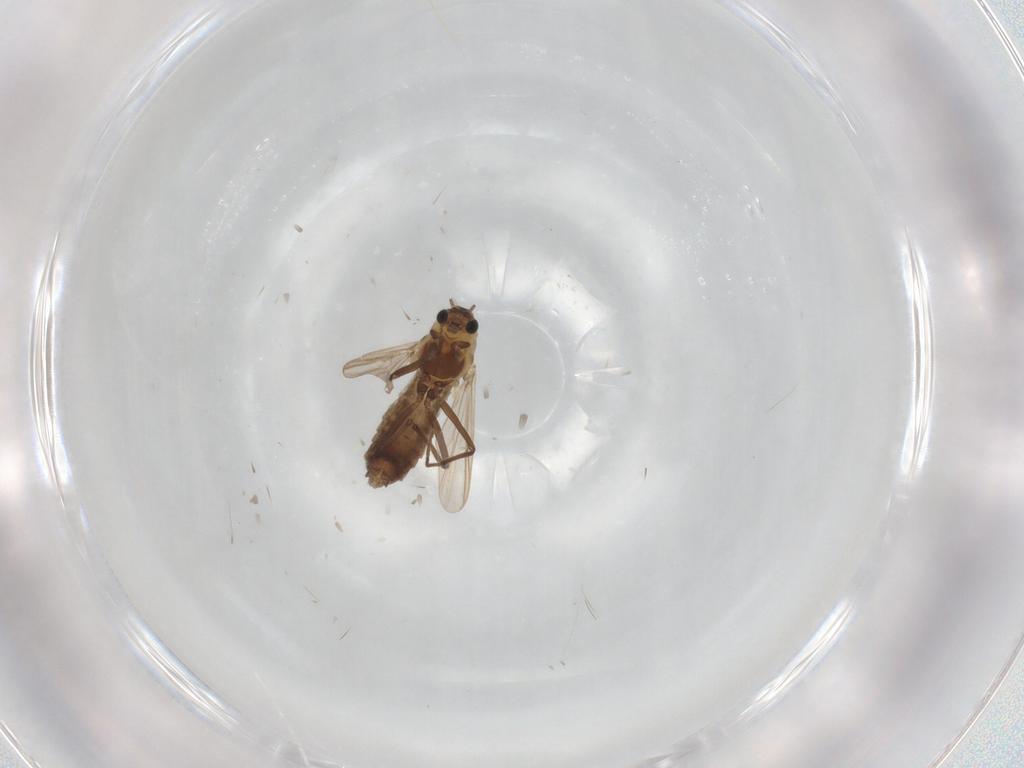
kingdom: Animalia
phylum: Arthropoda
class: Insecta
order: Diptera
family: Chironomidae
